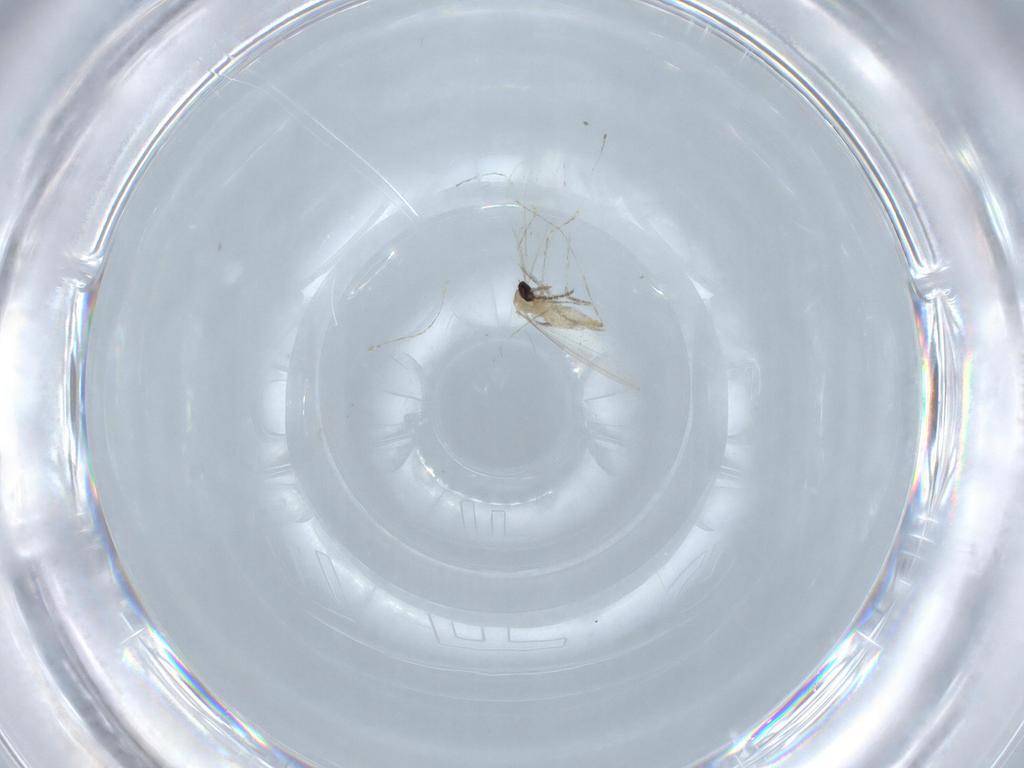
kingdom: Animalia
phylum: Arthropoda
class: Insecta
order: Diptera
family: Cecidomyiidae
